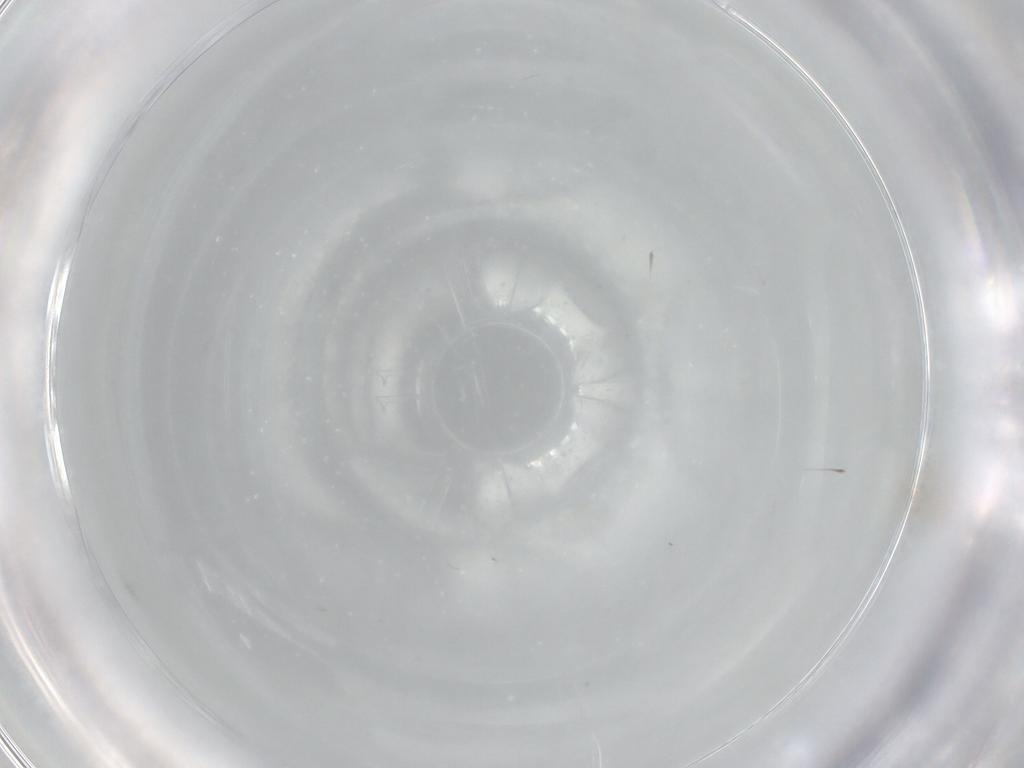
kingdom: Animalia
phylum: Arthropoda
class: Insecta
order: Hymenoptera
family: Trichogrammatidae
